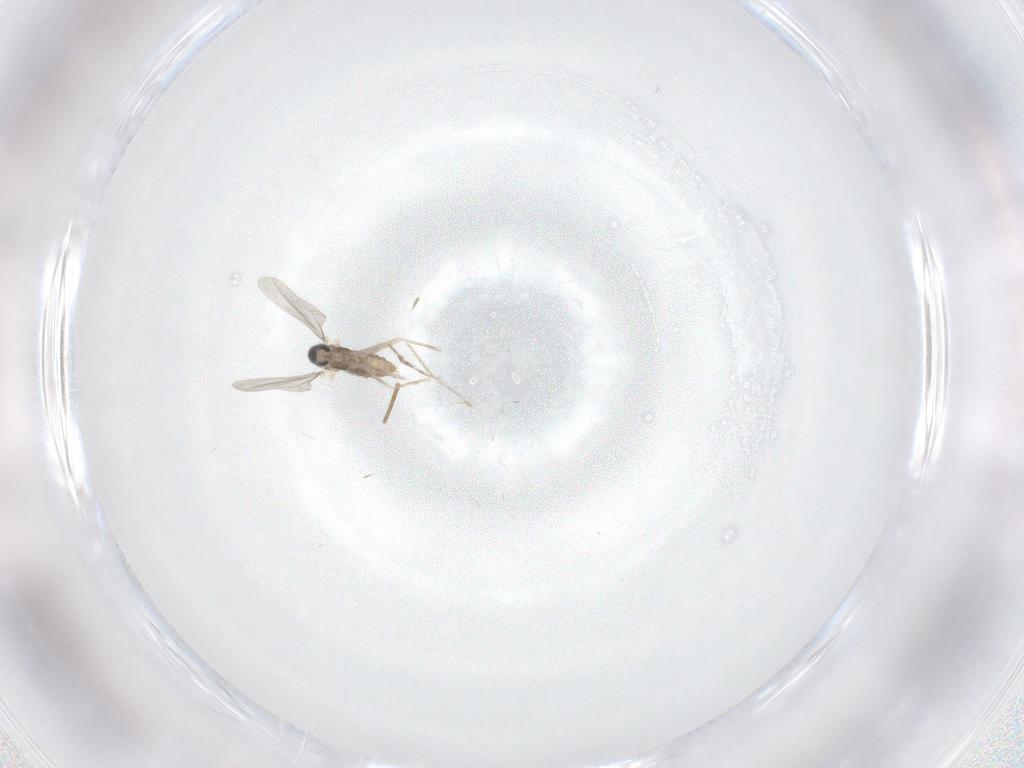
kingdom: Animalia
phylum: Arthropoda
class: Insecta
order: Diptera
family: Cecidomyiidae
